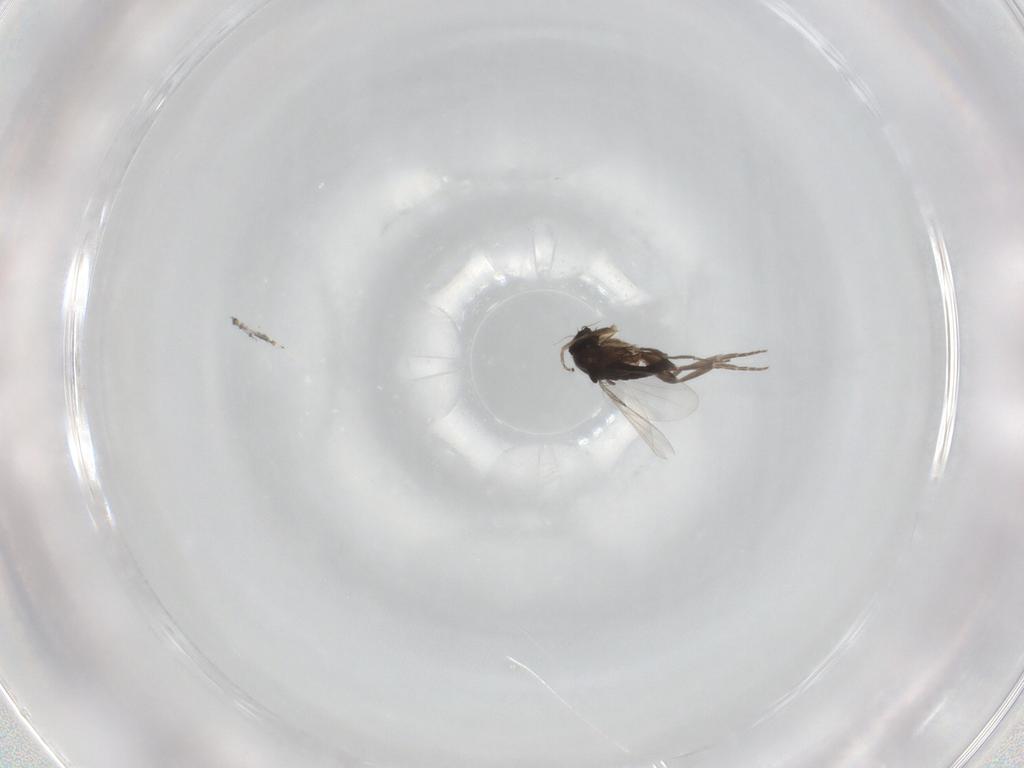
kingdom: Animalia
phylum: Arthropoda
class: Insecta
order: Diptera
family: Phoridae
